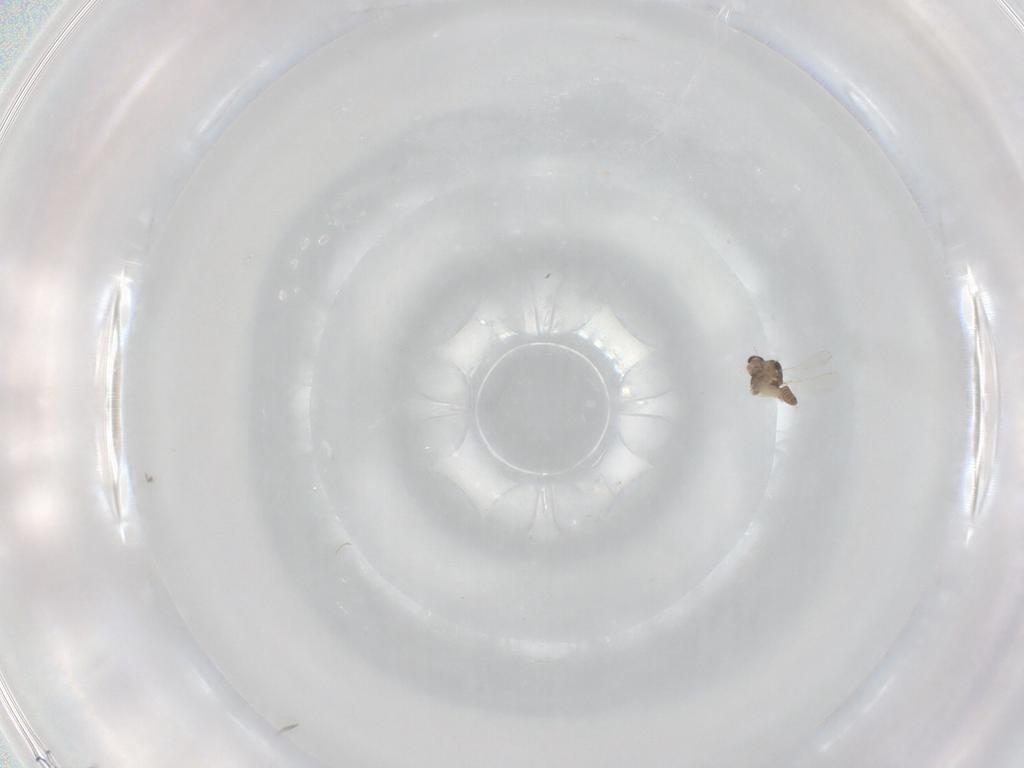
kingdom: Animalia
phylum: Arthropoda
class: Insecta
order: Diptera
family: Chironomidae
